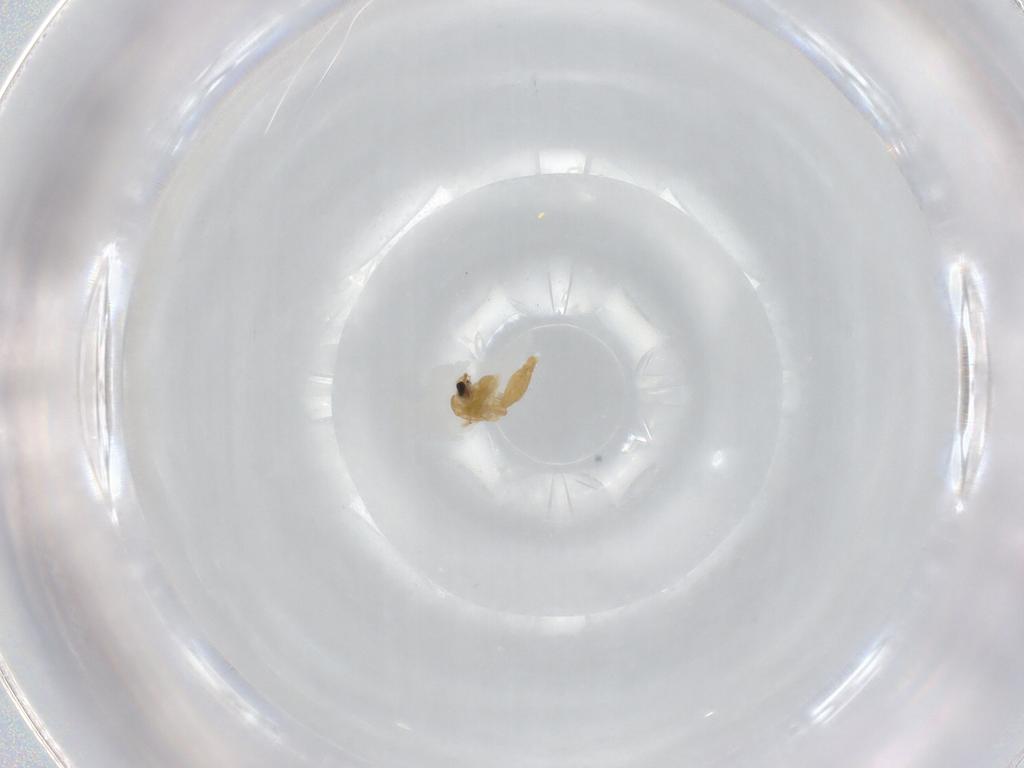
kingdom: Animalia
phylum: Arthropoda
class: Insecta
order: Diptera
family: Chironomidae
